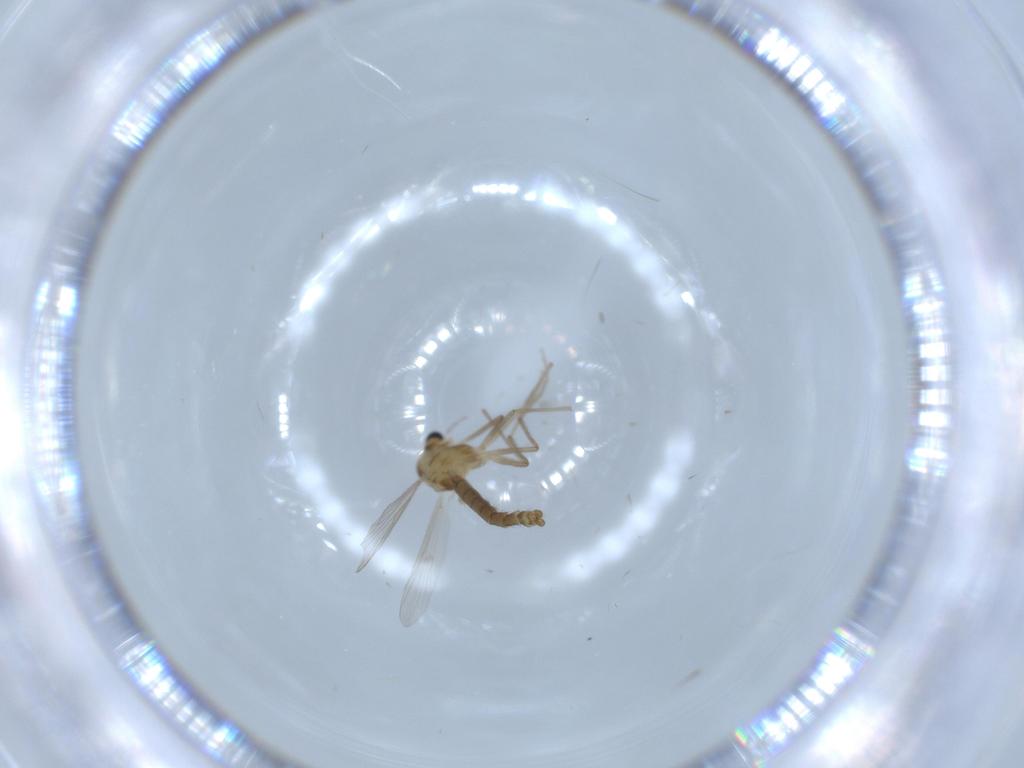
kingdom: Animalia
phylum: Arthropoda
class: Insecta
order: Diptera
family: Chironomidae
